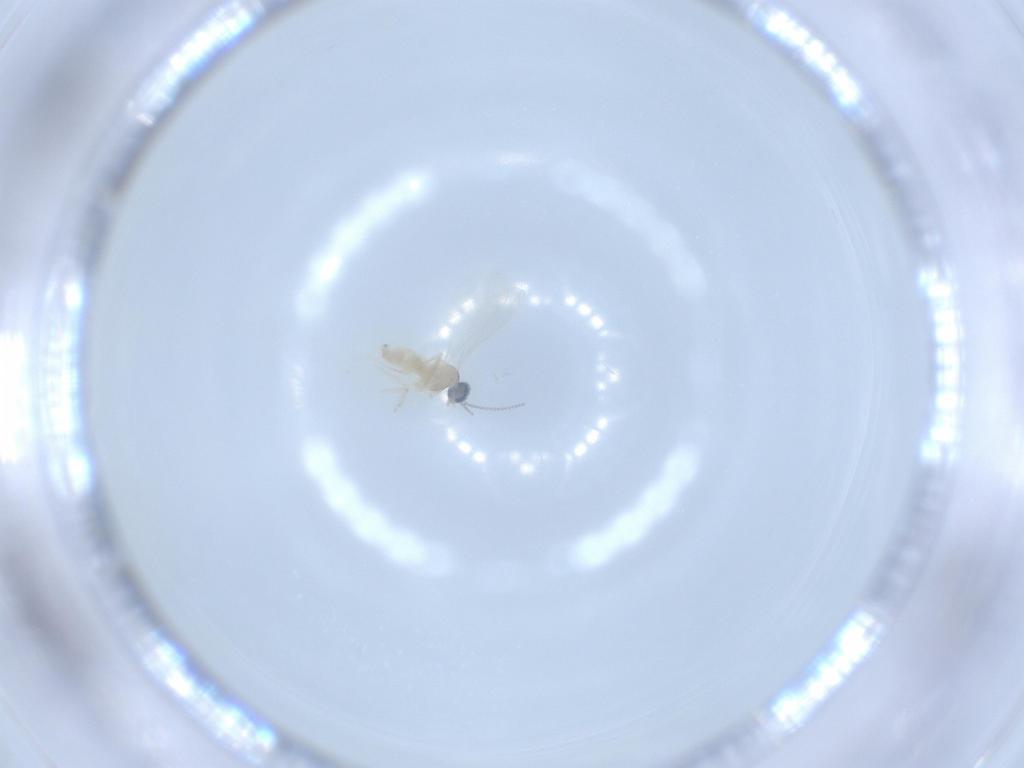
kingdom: Animalia
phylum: Arthropoda
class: Insecta
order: Diptera
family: Cecidomyiidae
